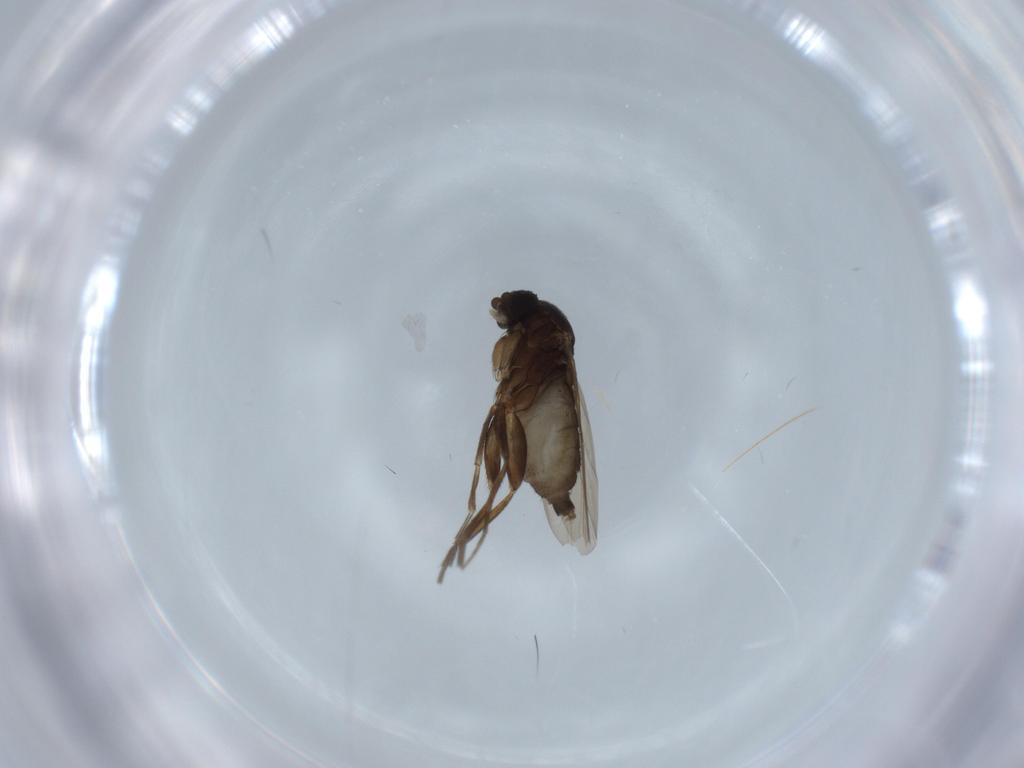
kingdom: Animalia
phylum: Arthropoda
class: Insecta
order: Diptera
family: Phoridae
